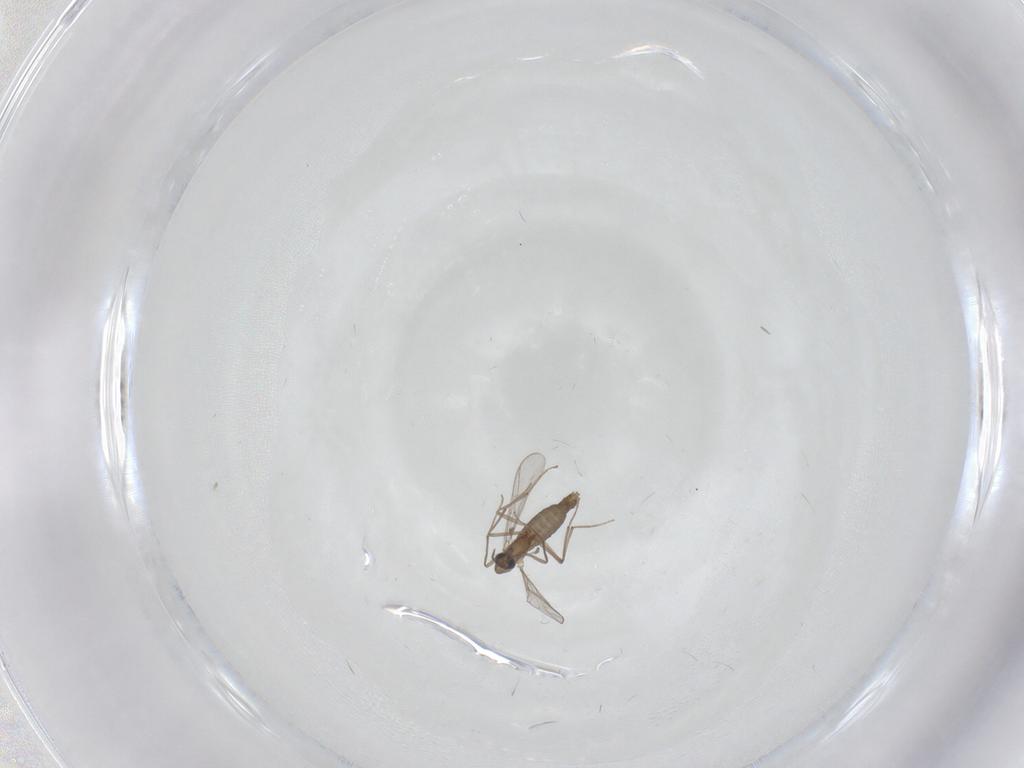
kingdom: Animalia
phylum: Arthropoda
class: Insecta
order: Diptera
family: Chironomidae
